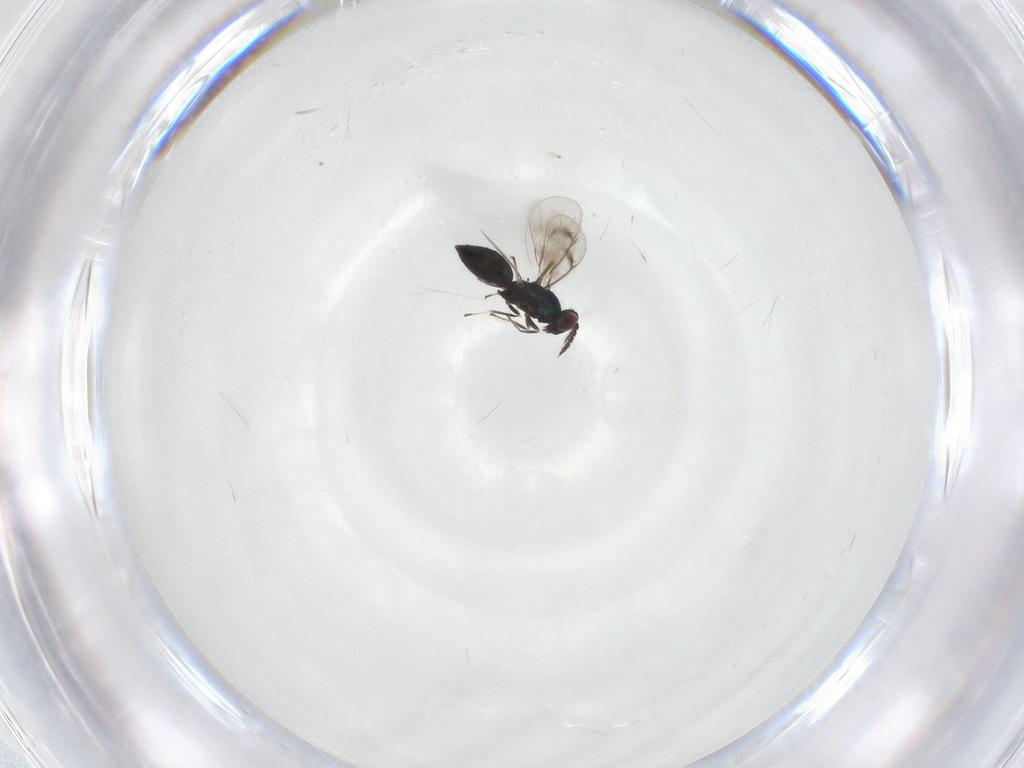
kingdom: Animalia
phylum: Arthropoda
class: Insecta
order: Hymenoptera
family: Eulophidae
